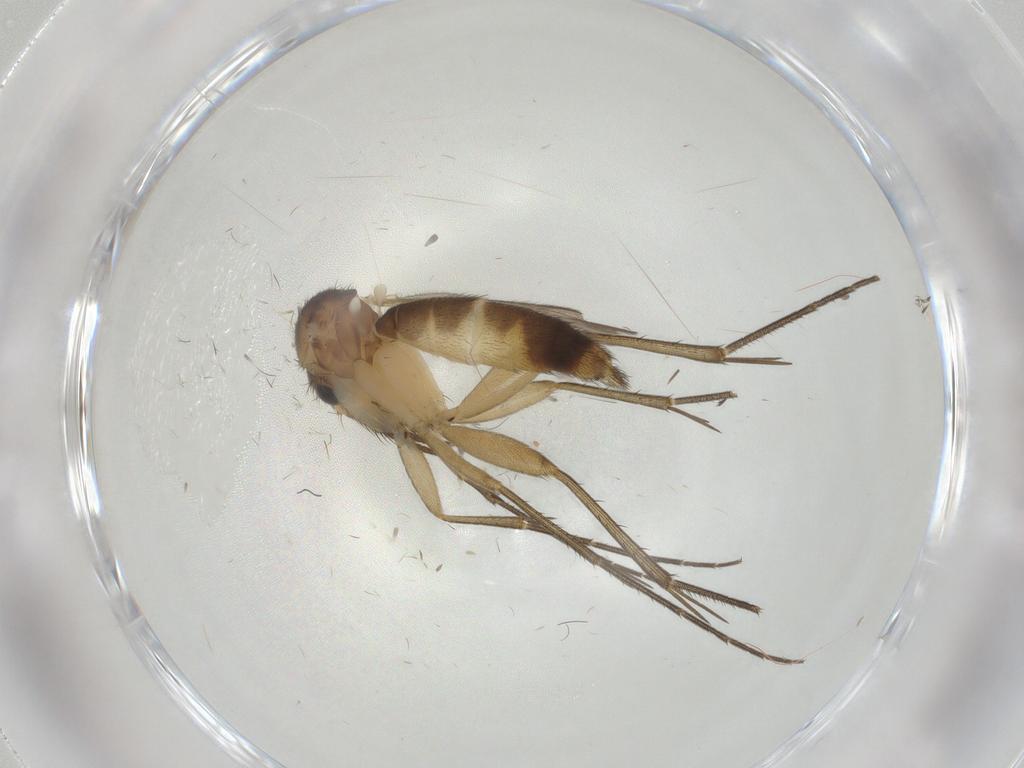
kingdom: Animalia
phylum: Arthropoda
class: Insecta
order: Diptera
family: Mycetophilidae
